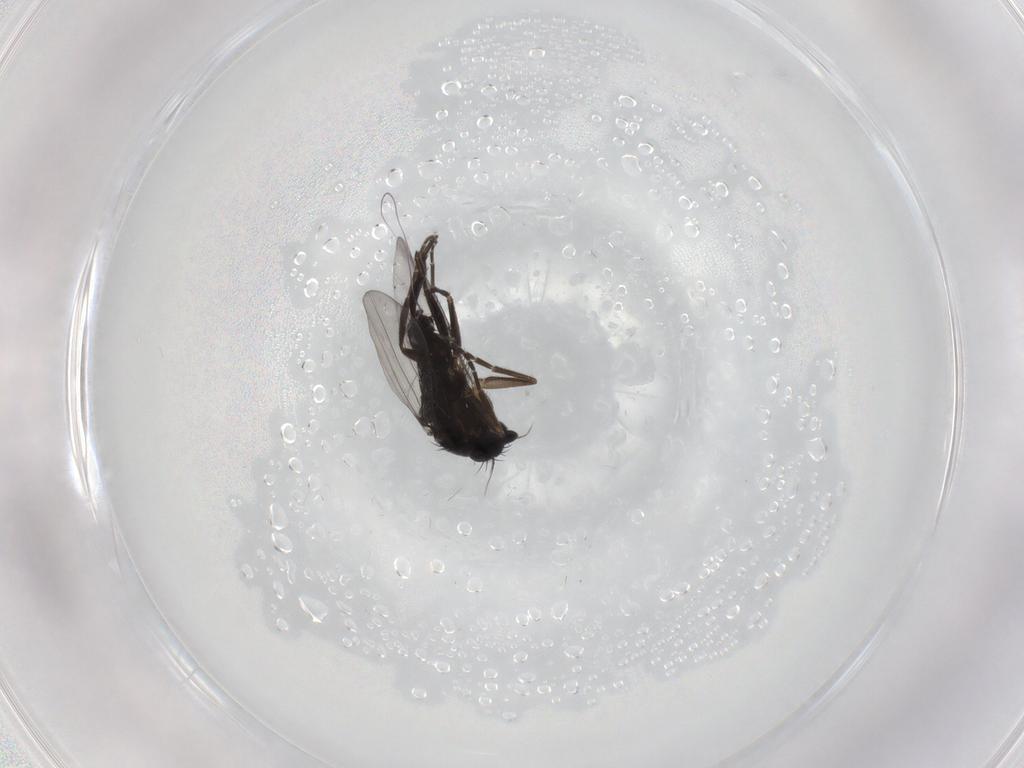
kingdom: Animalia
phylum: Arthropoda
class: Insecta
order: Diptera
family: Phoridae
